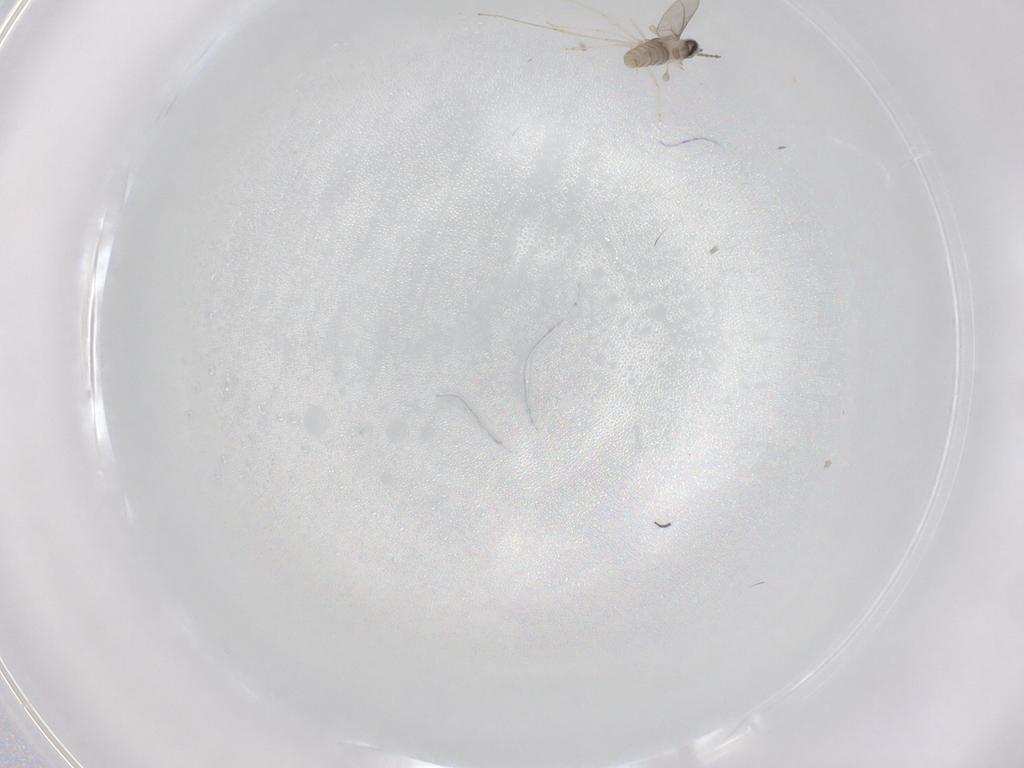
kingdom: Animalia
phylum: Arthropoda
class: Insecta
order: Diptera
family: Cecidomyiidae
